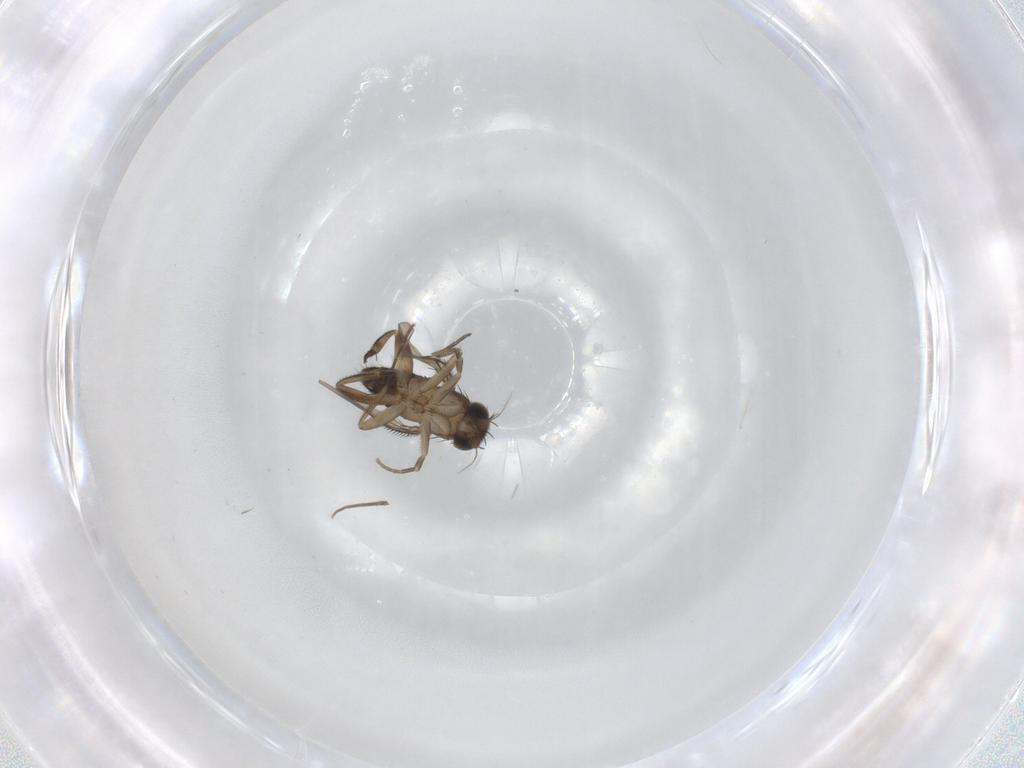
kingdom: Animalia
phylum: Arthropoda
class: Insecta
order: Diptera
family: Phoridae
